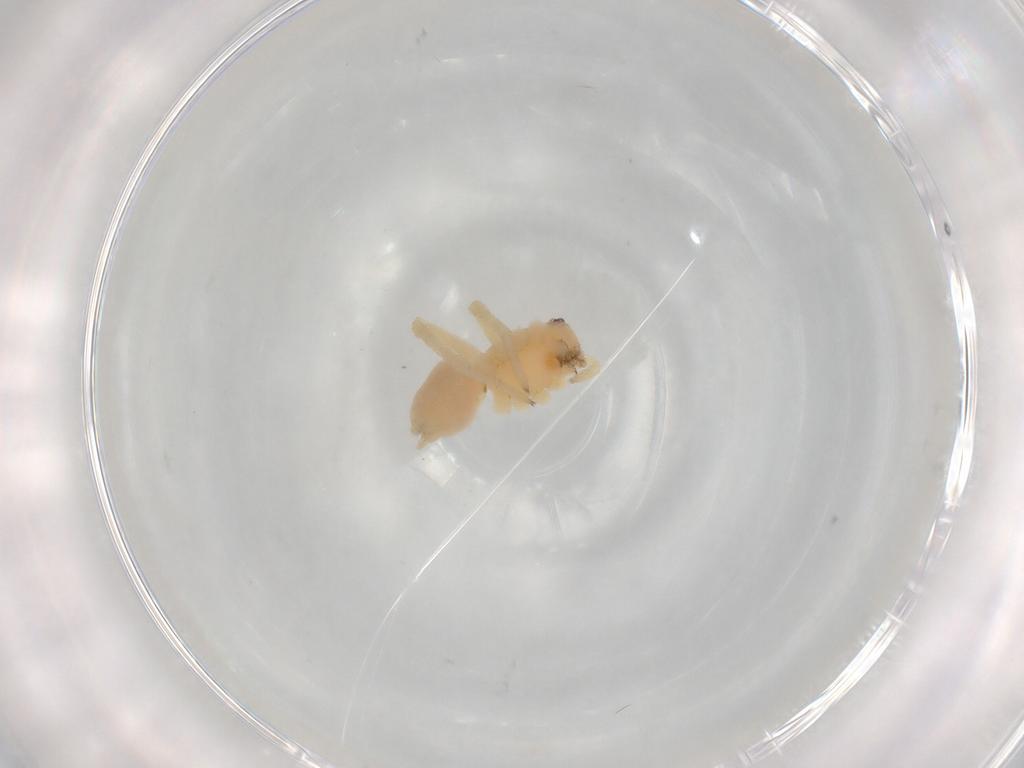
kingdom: Animalia
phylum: Arthropoda
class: Arachnida
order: Araneae
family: Cheiracanthiidae
